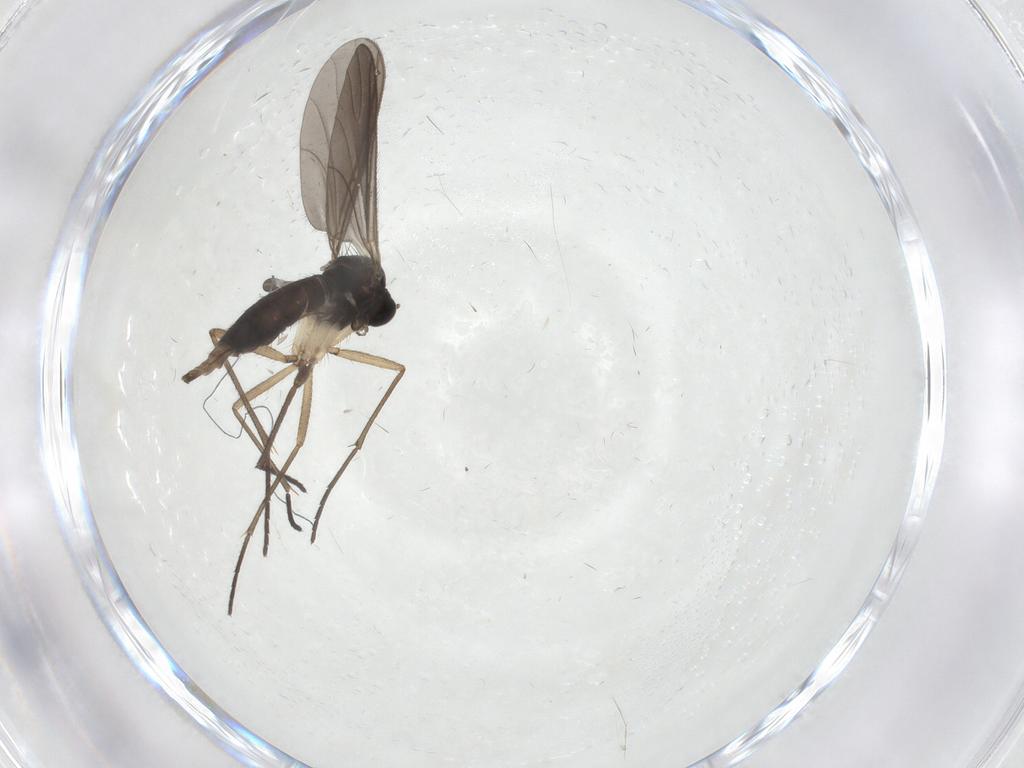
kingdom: Animalia
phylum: Arthropoda
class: Insecta
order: Diptera
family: Sciaridae
